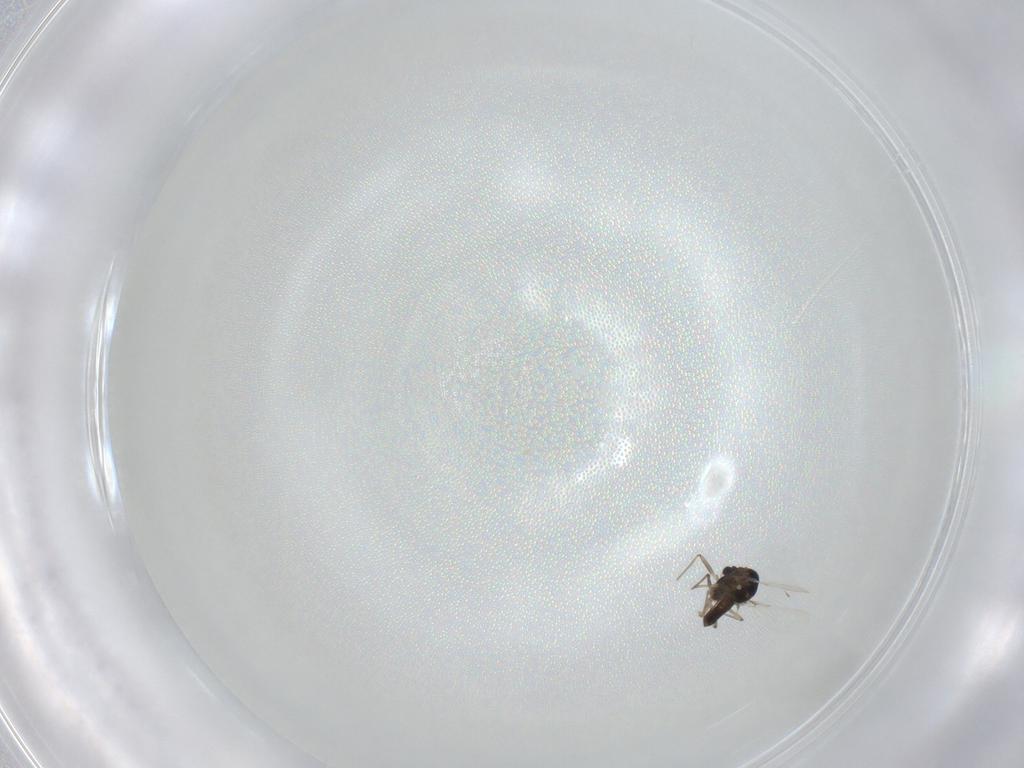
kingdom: Animalia
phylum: Arthropoda
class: Insecta
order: Diptera
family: Chironomidae
